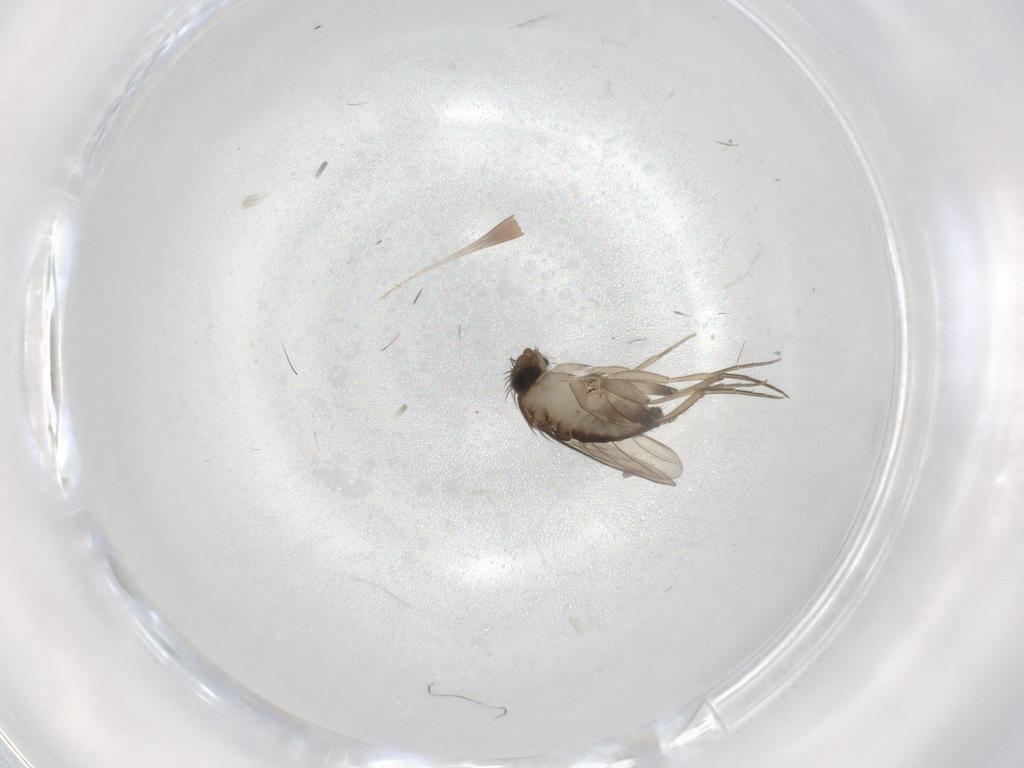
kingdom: Animalia
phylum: Arthropoda
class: Insecta
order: Diptera
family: Phoridae
